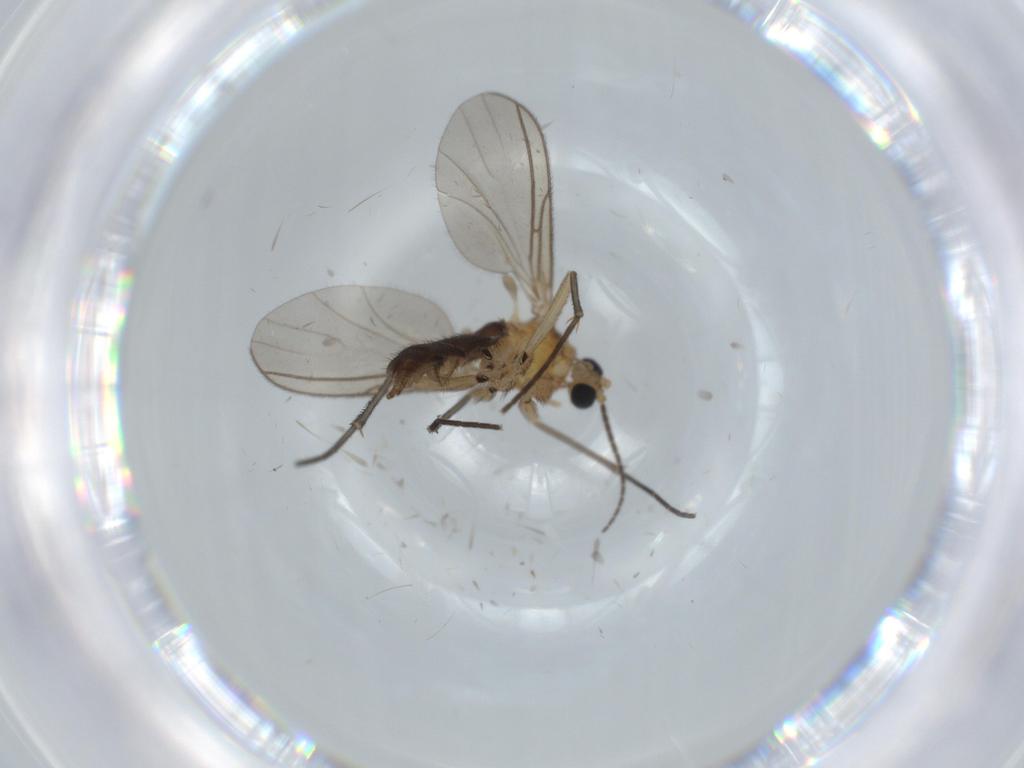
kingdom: Animalia
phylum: Arthropoda
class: Insecta
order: Diptera
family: Sciaridae
